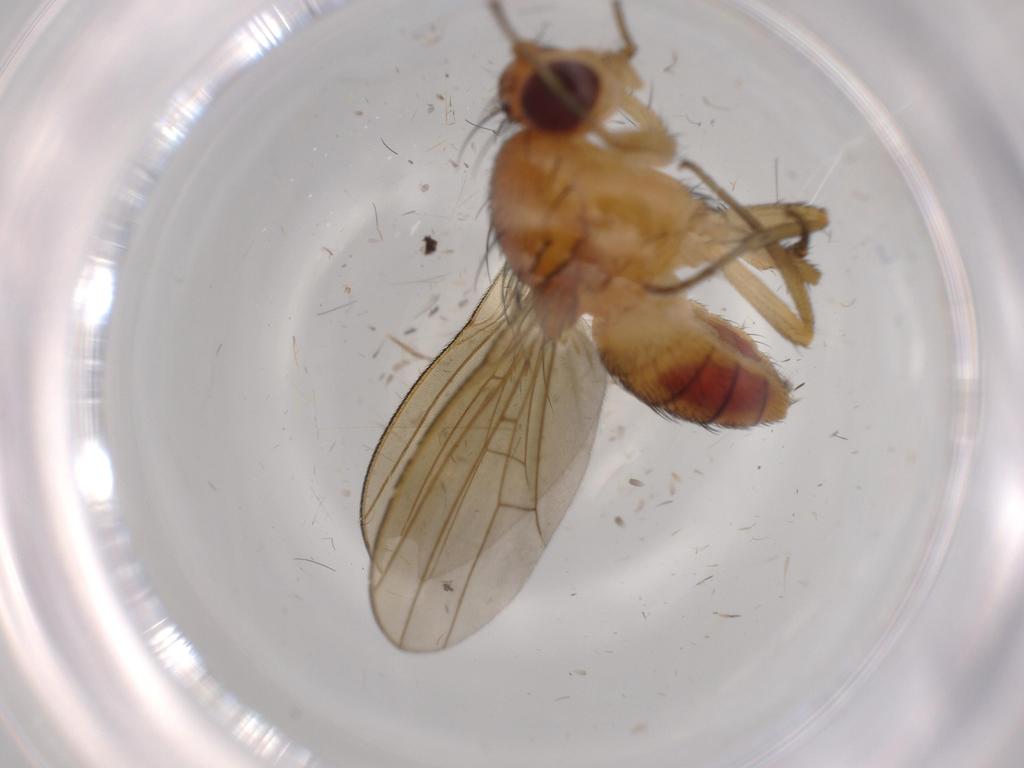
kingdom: Animalia
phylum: Arthropoda
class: Insecta
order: Diptera
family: Lauxaniidae
